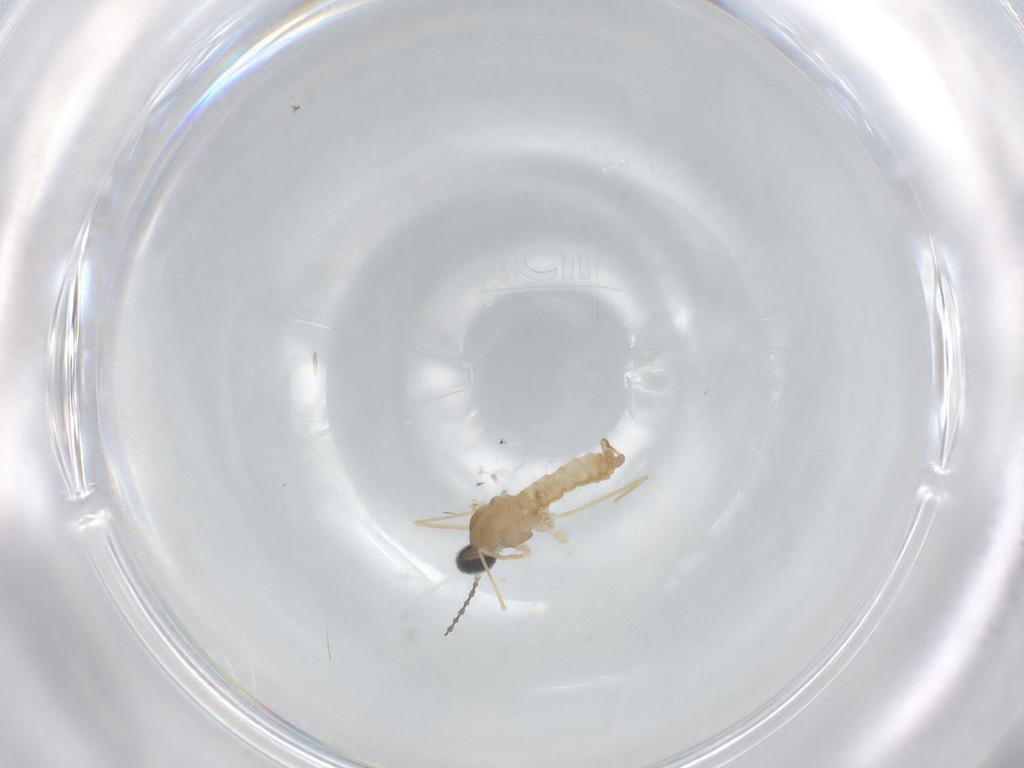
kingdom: Animalia
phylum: Arthropoda
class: Insecta
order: Diptera
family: Cecidomyiidae
